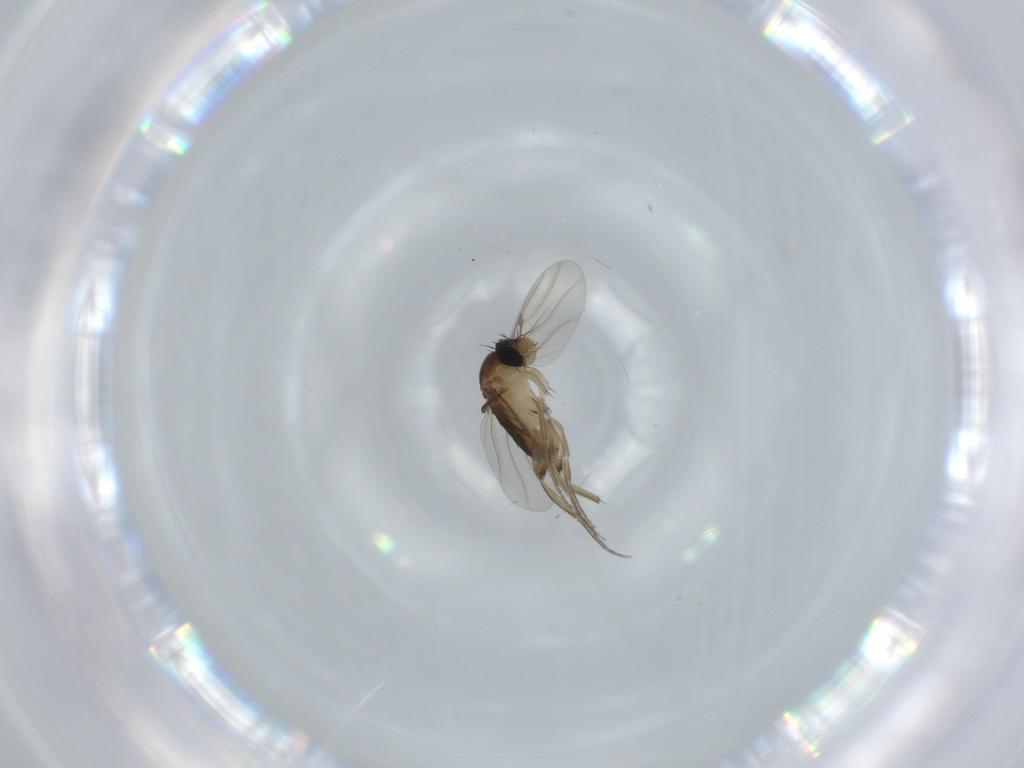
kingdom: Animalia
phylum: Arthropoda
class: Insecta
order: Diptera
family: Phoridae
